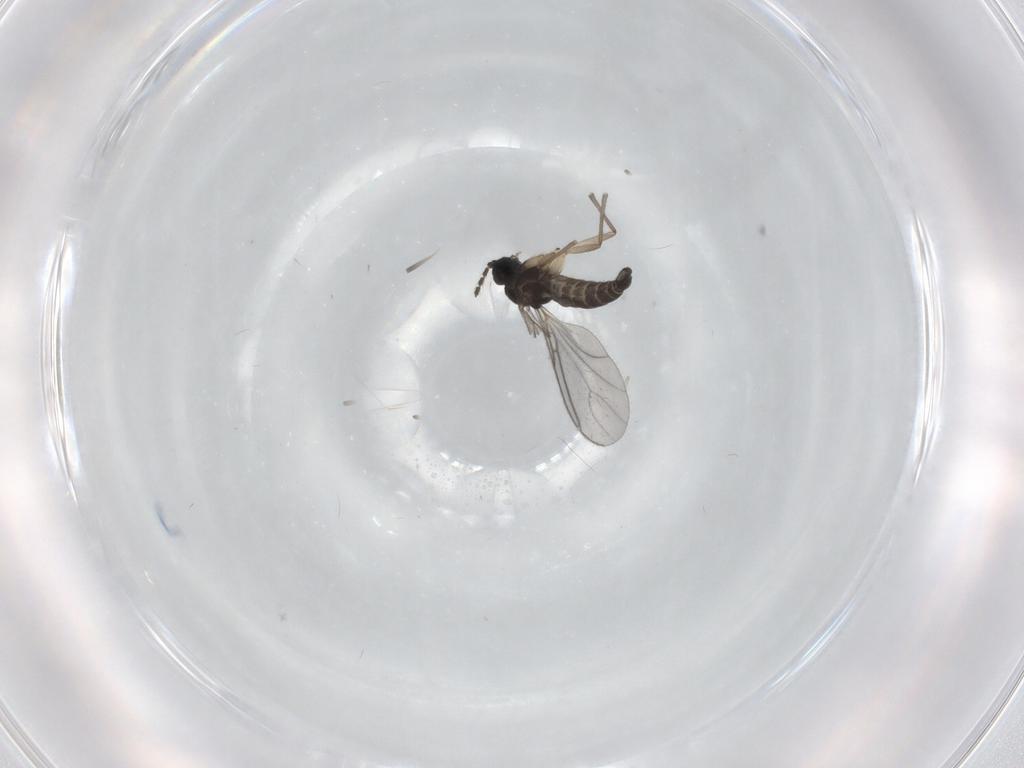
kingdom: Animalia
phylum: Arthropoda
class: Insecta
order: Diptera
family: Sciaridae
